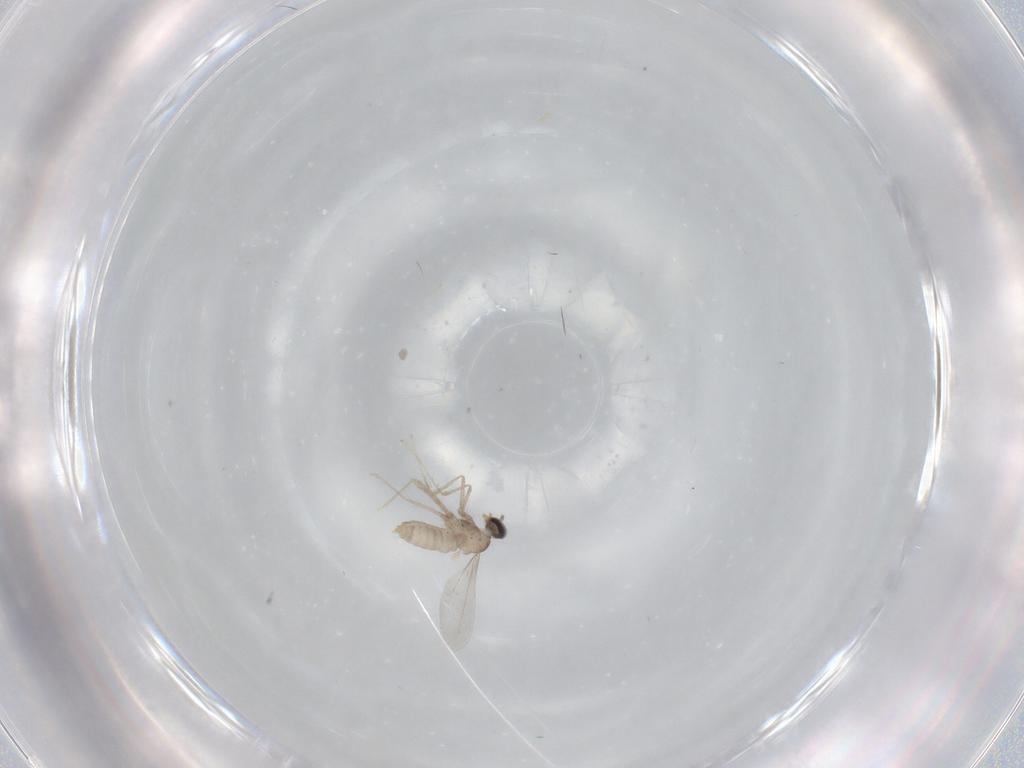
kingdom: Animalia
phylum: Arthropoda
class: Insecta
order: Diptera
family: Cecidomyiidae
